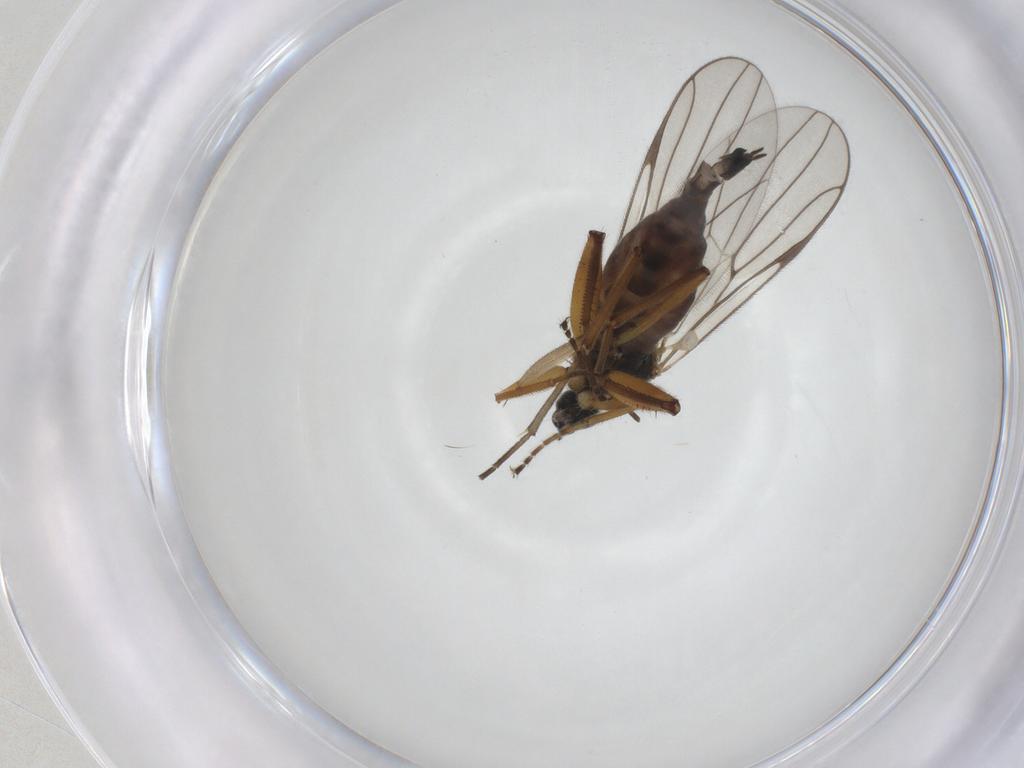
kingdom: Animalia
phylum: Arthropoda
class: Insecta
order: Diptera
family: Hybotidae
